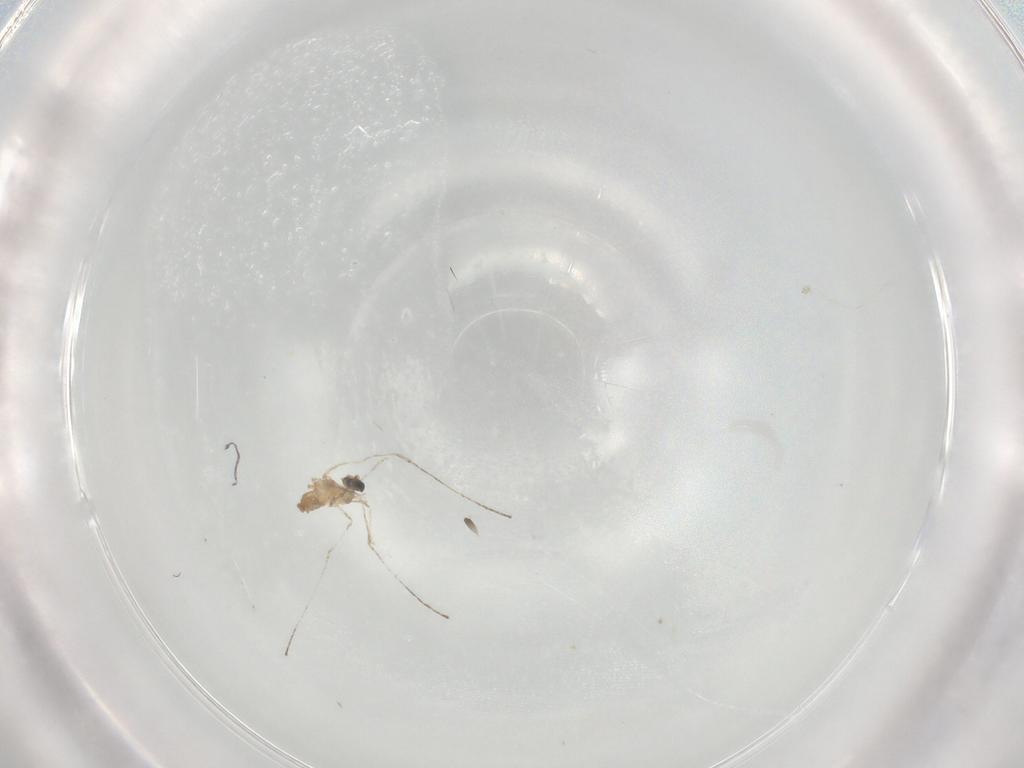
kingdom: Animalia
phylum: Arthropoda
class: Insecta
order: Diptera
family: Cecidomyiidae
